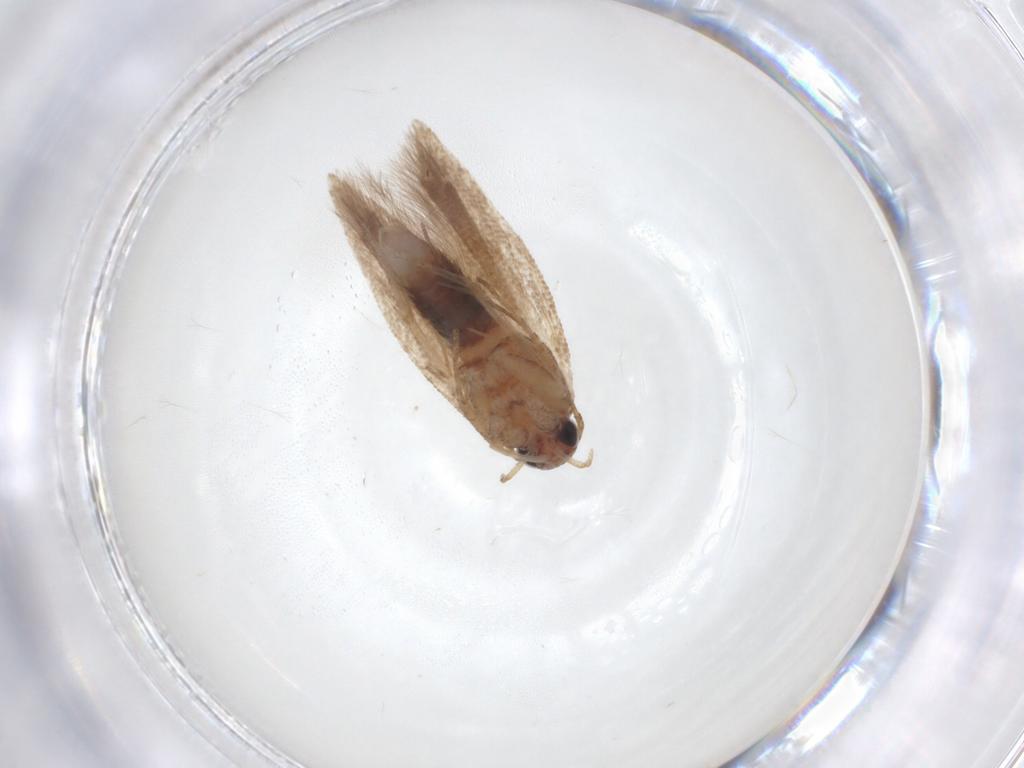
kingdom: Animalia
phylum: Arthropoda
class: Insecta
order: Lepidoptera
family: Gelechiidae
